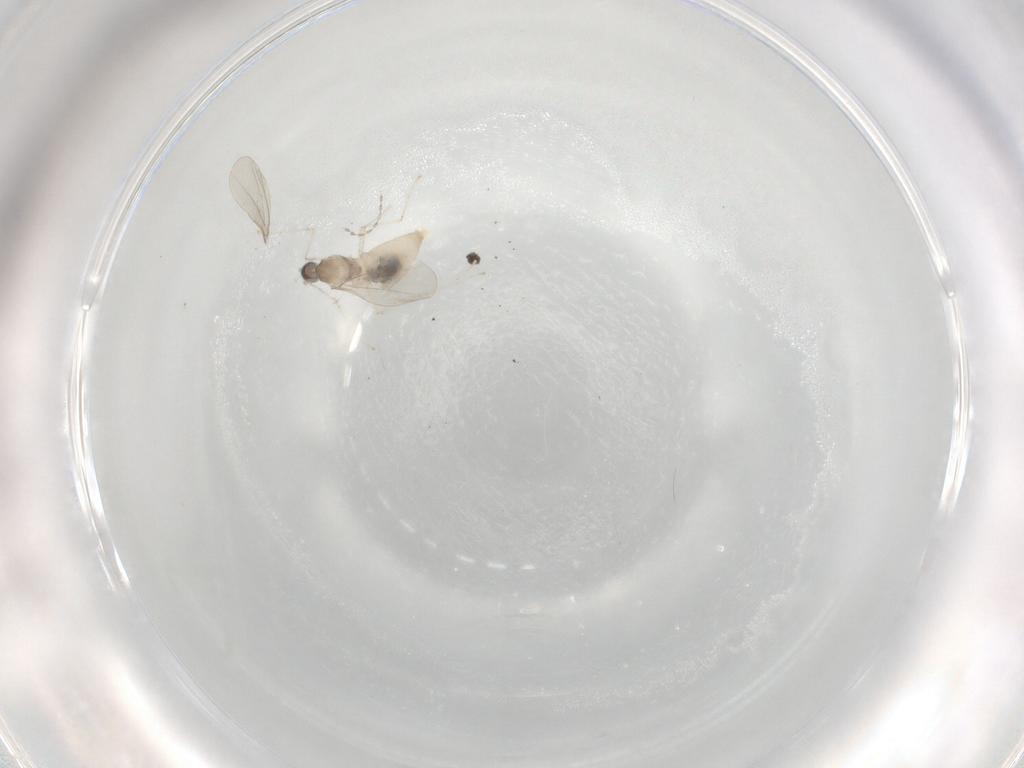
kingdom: Animalia
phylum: Arthropoda
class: Insecta
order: Diptera
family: Cecidomyiidae
